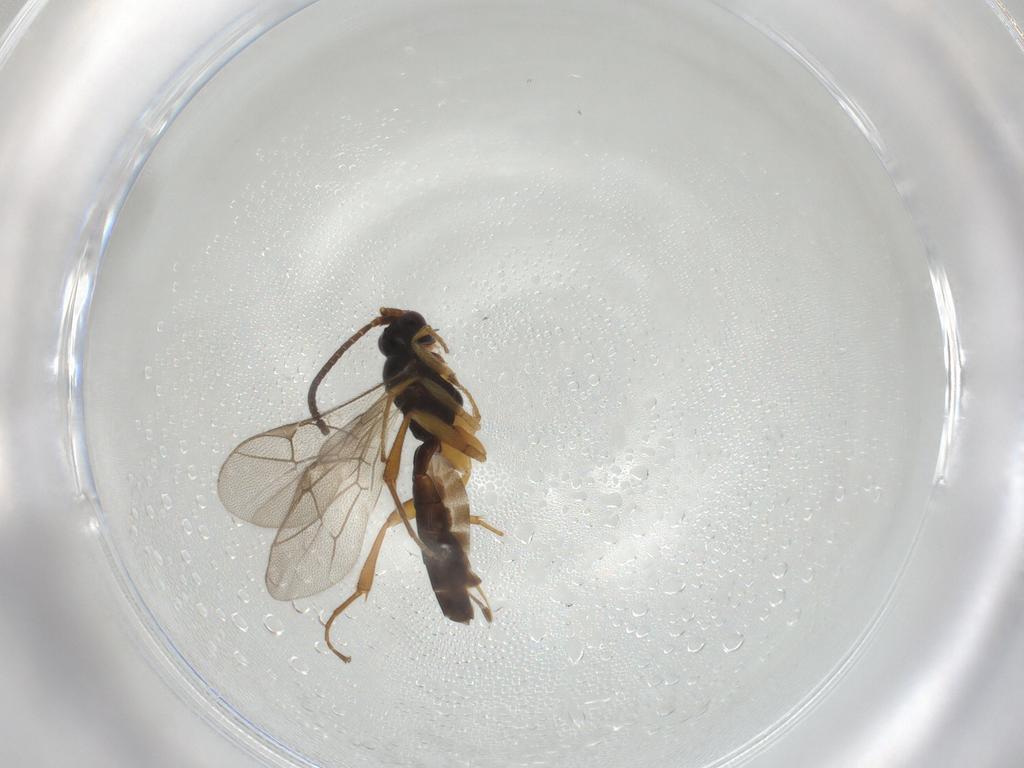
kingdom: Animalia
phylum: Arthropoda
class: Insecta
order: Hymenoptera
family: Ichneumonidae
